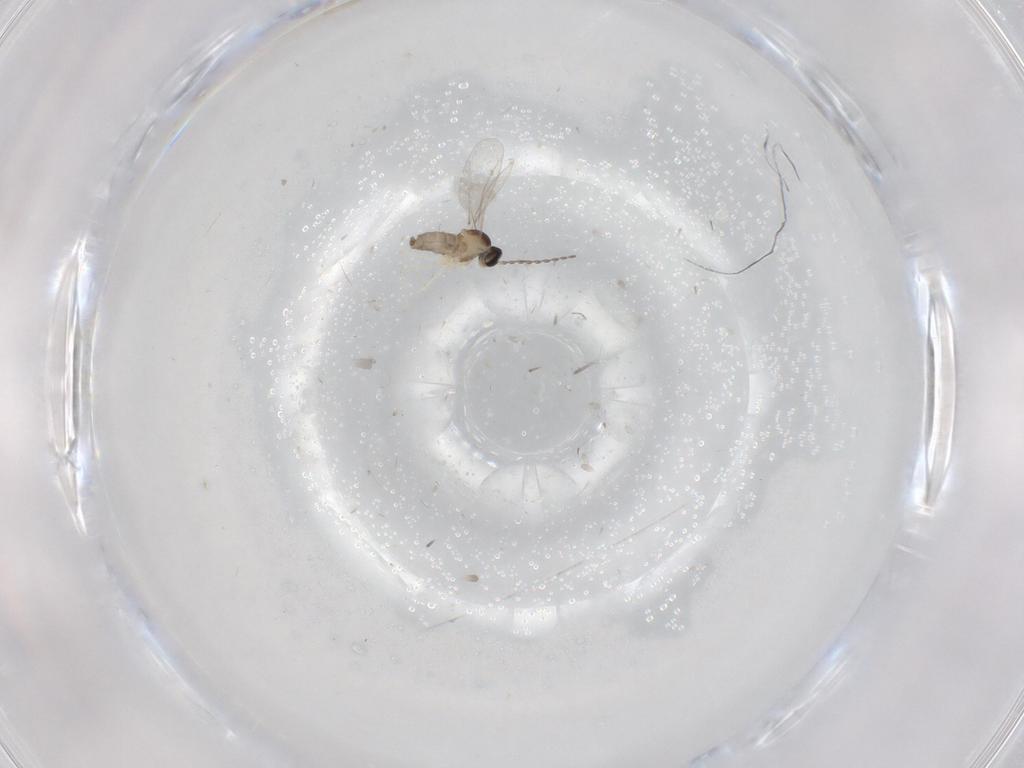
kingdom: Animalia
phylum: Arthropoda
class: Insecta
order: Diptera
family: Cecidomyiidae
